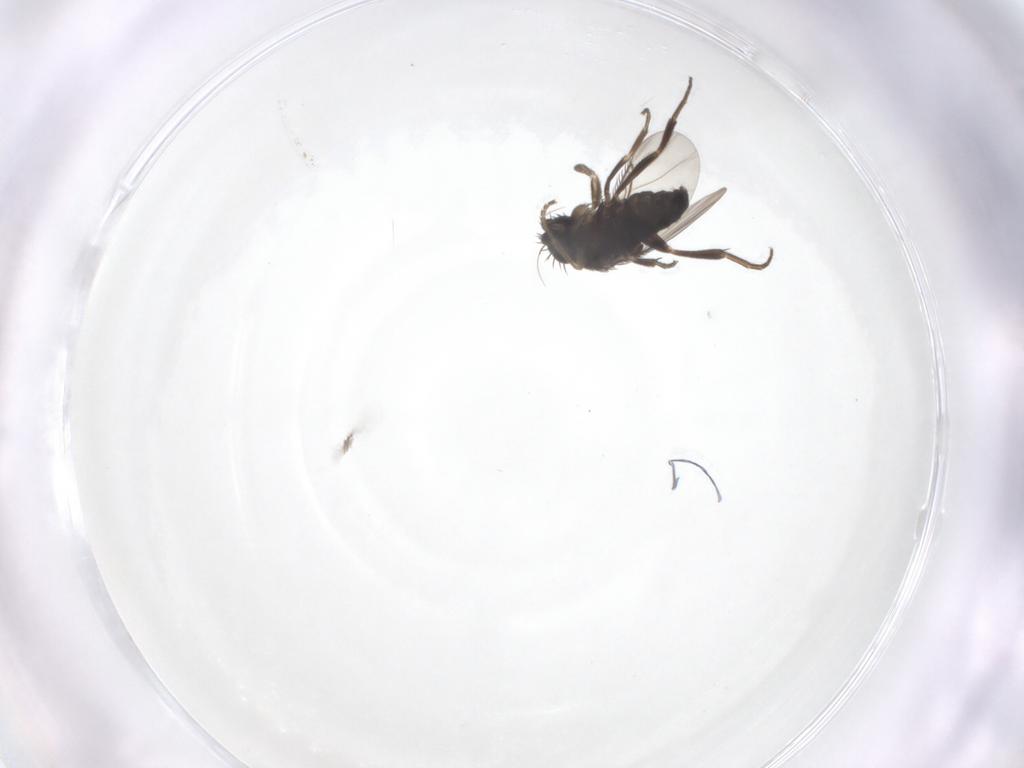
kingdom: Animalia
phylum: Arthropoda
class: Insecta
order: Diptera
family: Phoridae
